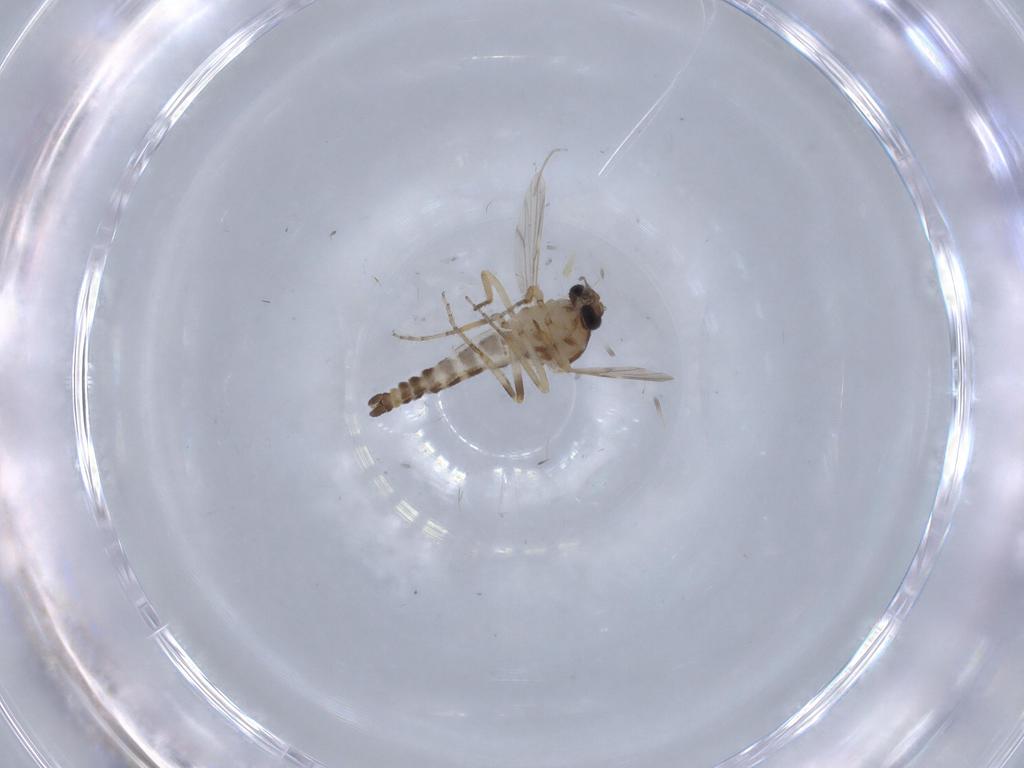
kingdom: Animalia
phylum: Arthropoda
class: Insecta
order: Diptera
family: Ceratopogonidae
